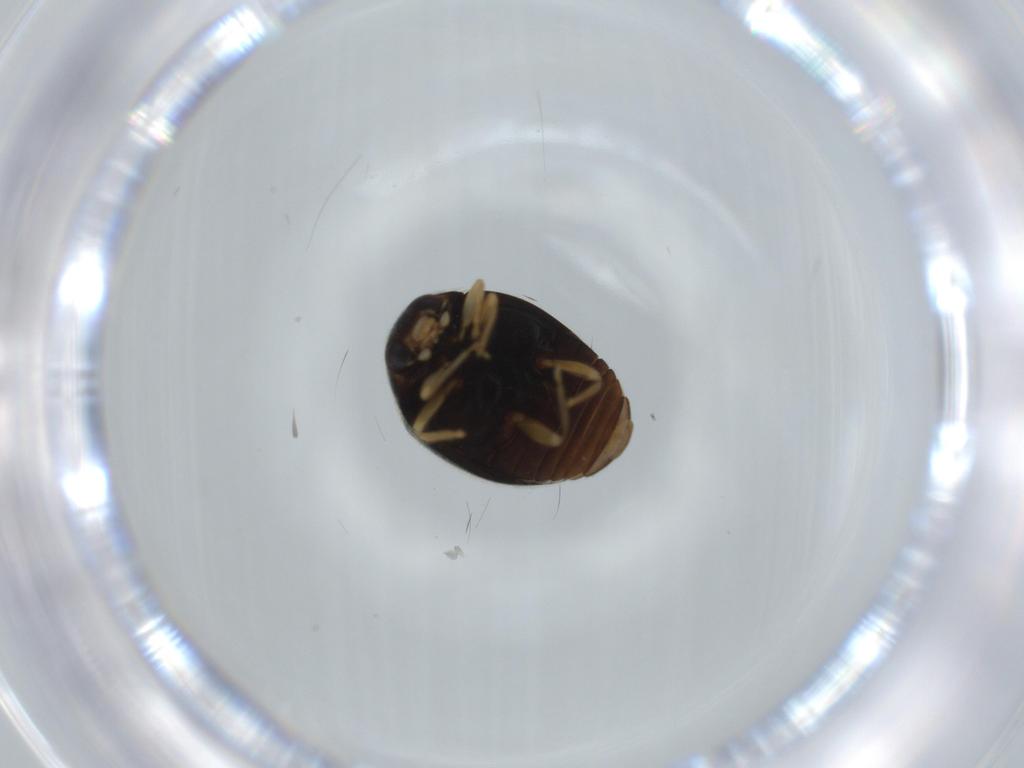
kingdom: Animalia
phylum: Arthropoda
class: Insecta
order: Coleoptera
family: Coccinellidae
